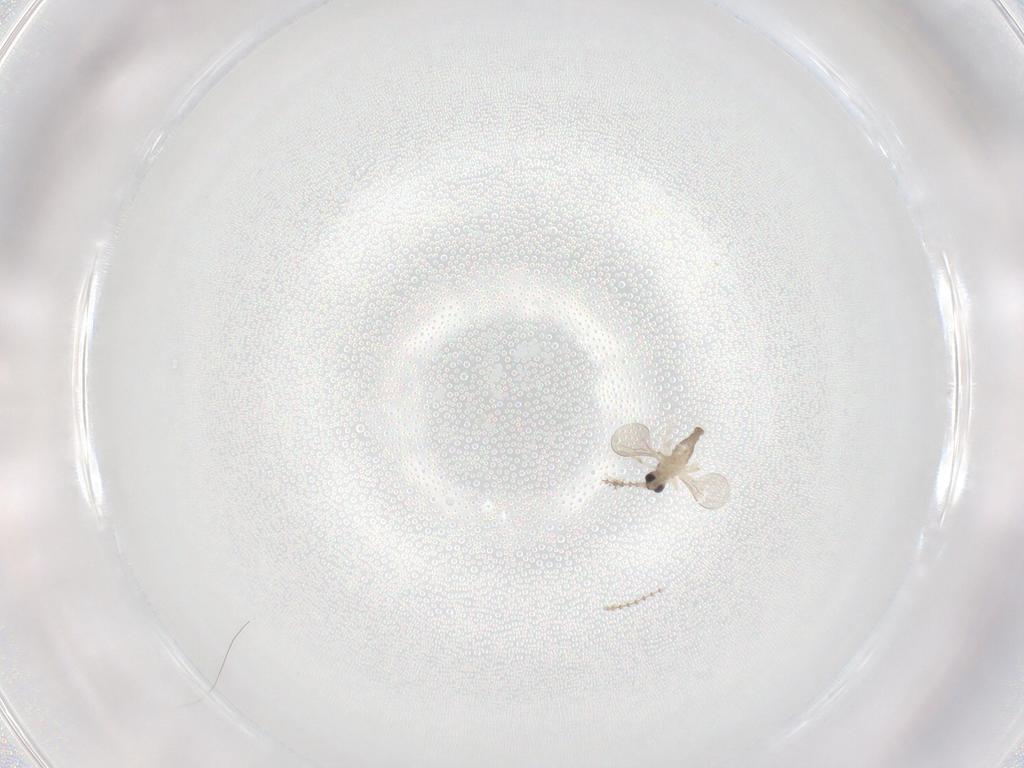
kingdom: Animalia
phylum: Arthropoda
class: Insecta
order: Diptera
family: Cecidomyiidae
